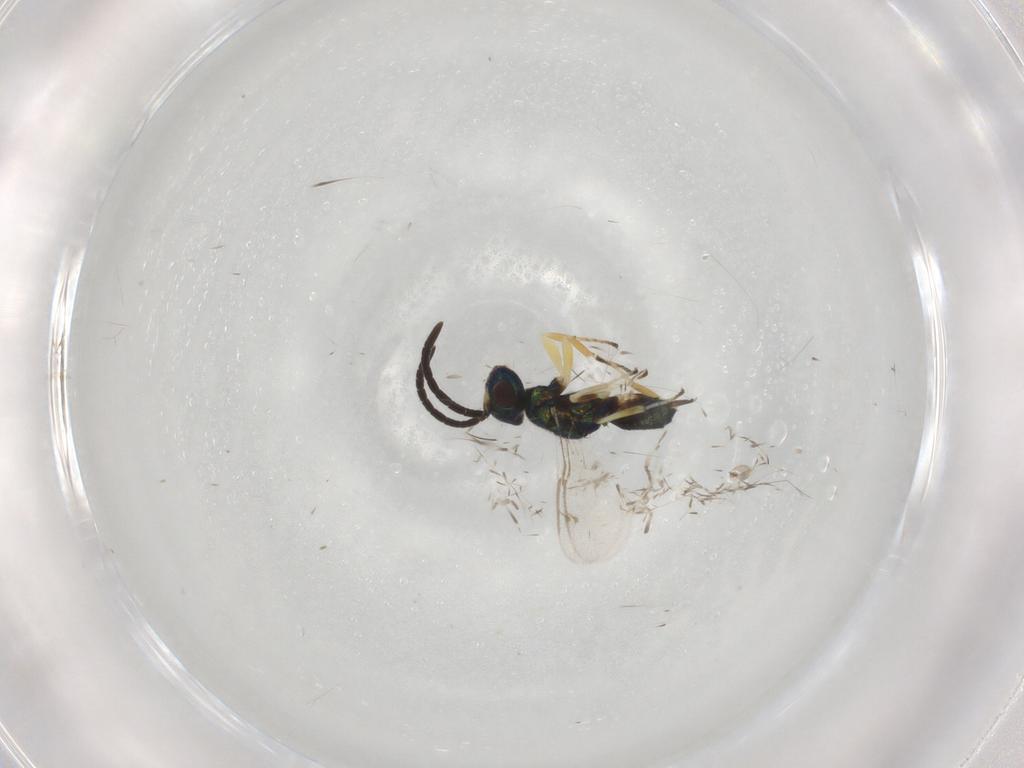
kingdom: Animalia
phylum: Arthropoda
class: Insecta
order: Hymenoptera
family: Eupelmidae
